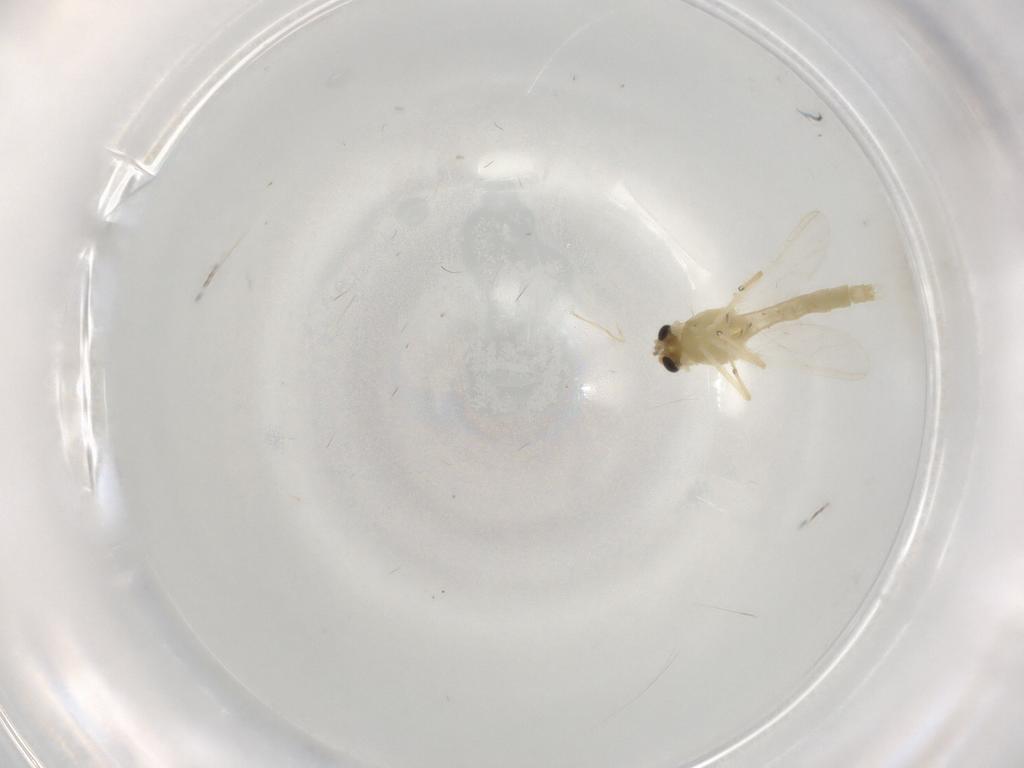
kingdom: Animalia
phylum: Arthropoda
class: Insecta
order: Diptera
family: Chironomidae
